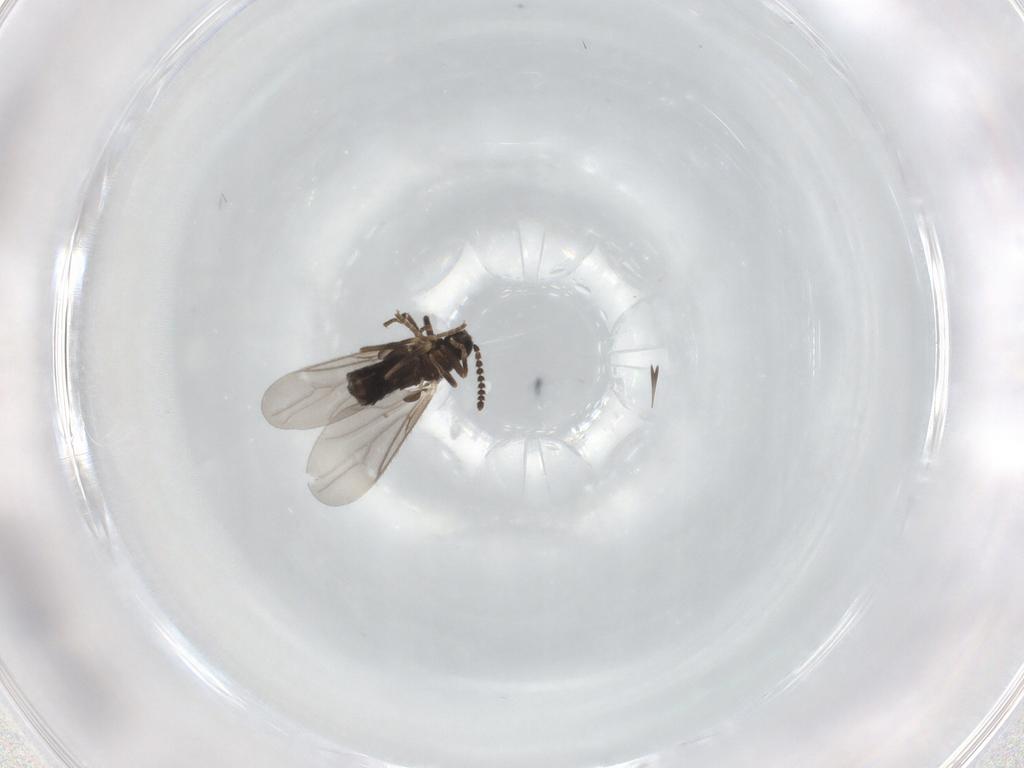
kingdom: Animalia
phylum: Arthropoda
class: Insecta
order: Diptera
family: Scatopsidae
